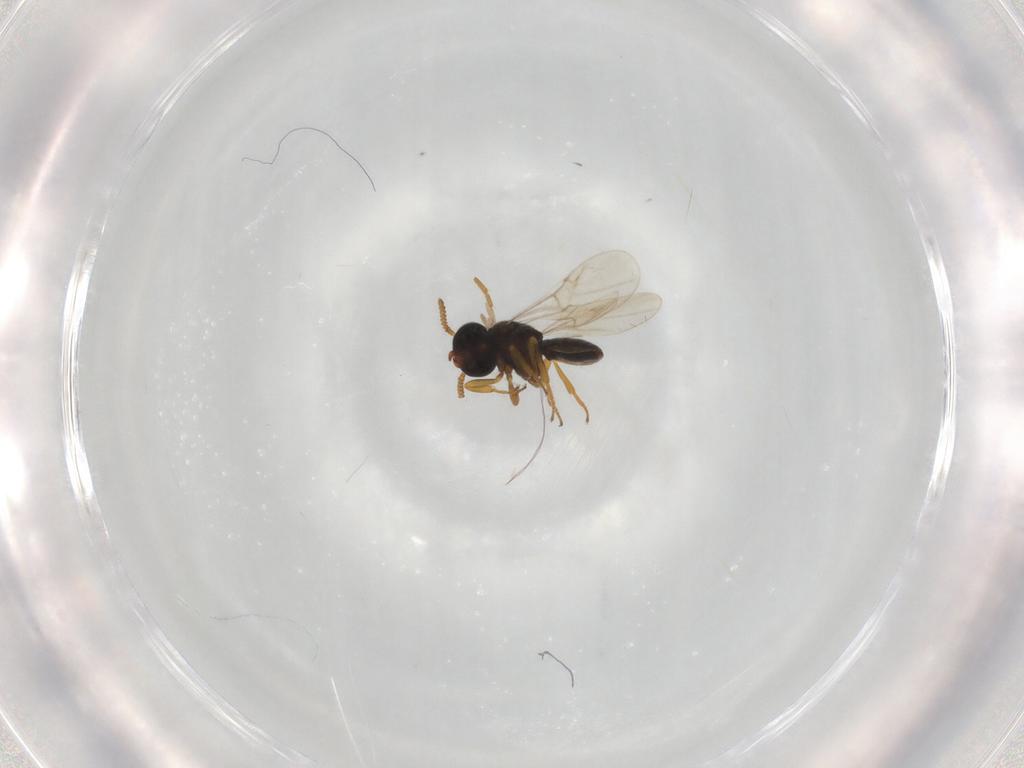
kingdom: Animalia
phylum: Arthropoda
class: Insecta
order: Hymenoptera
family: Scelionidae
